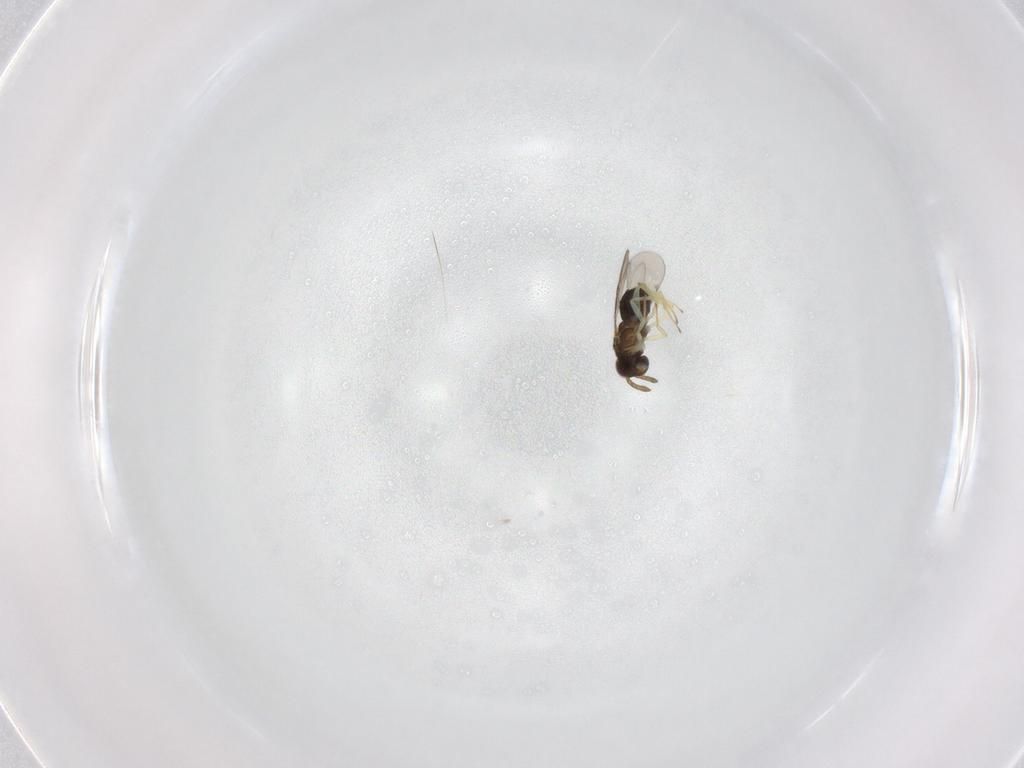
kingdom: Animalia
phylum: Arthropoda
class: Insecta
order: Hymenoptera
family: Aphelinidae
